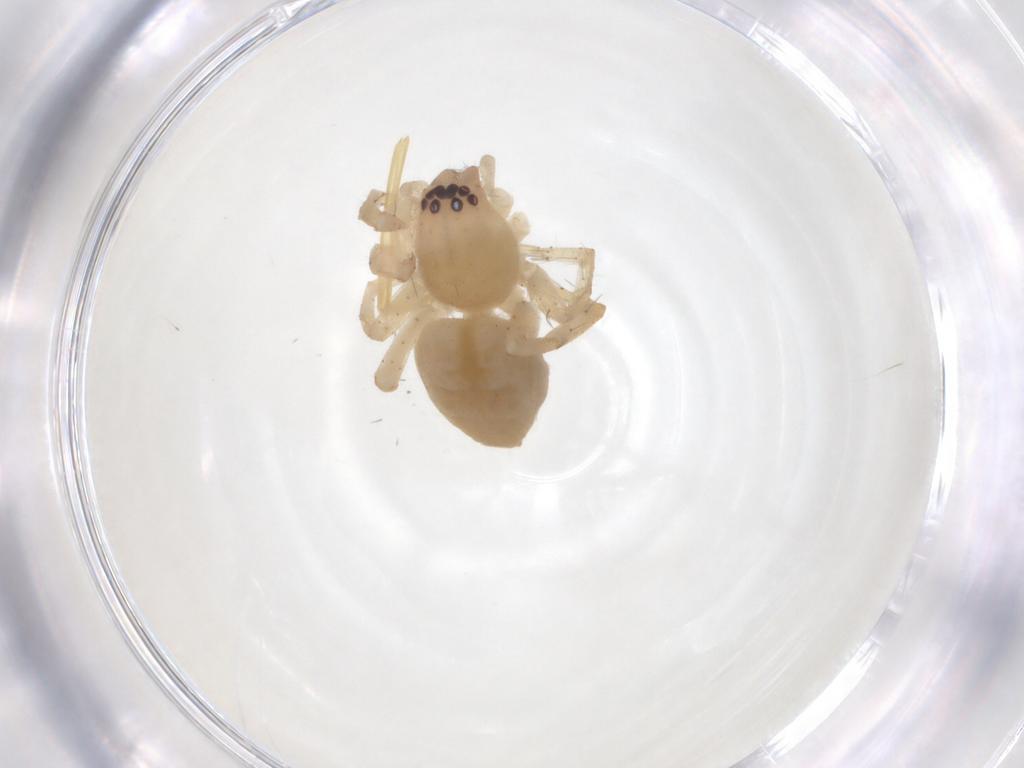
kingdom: Animalia
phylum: Arthropoda
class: Arachnida
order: Araneae
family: Clubionidae
